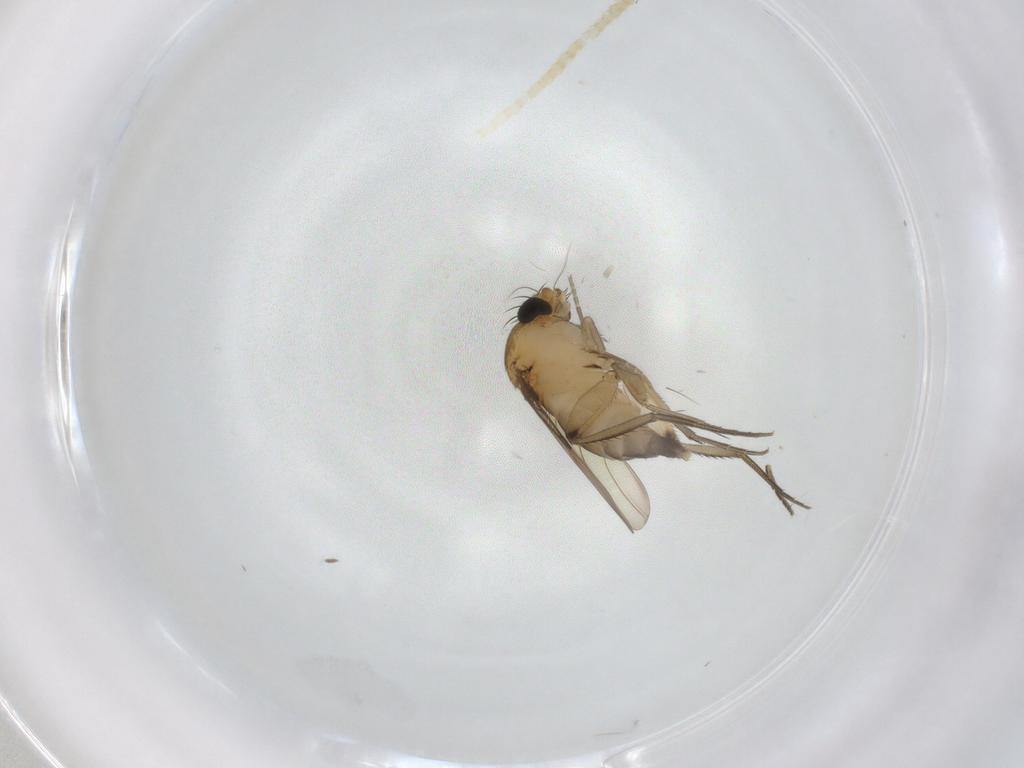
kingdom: Animalia
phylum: Arthropoda
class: Insecta
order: Diptera
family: Phoridae
